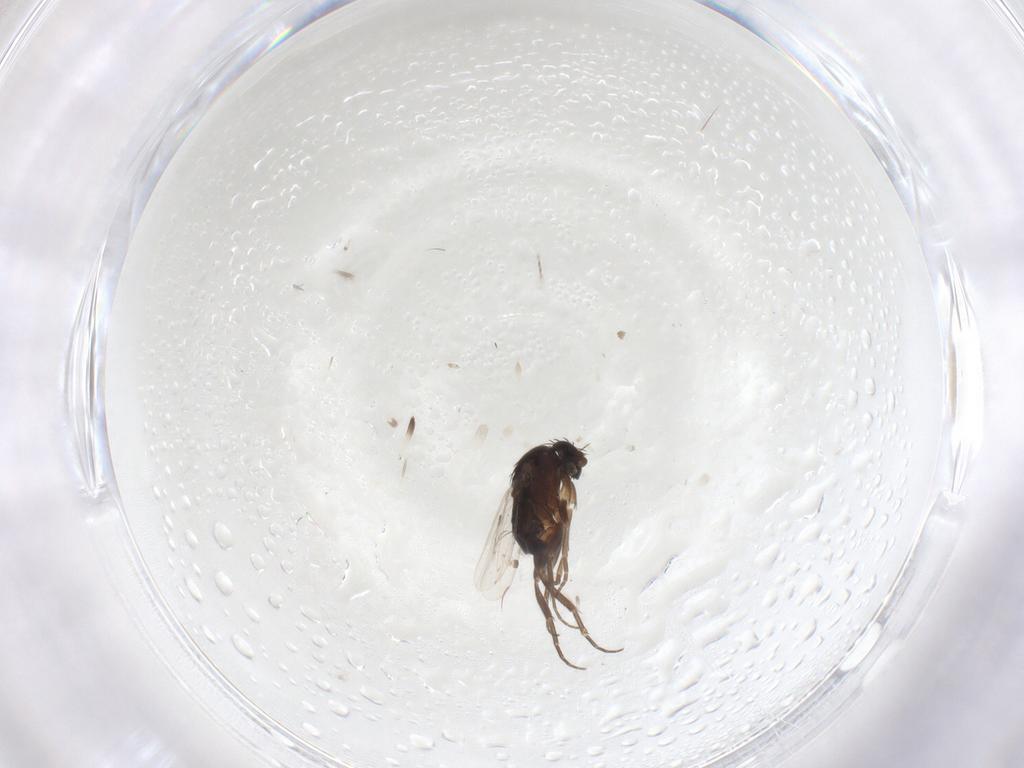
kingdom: Animalia
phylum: Arthropoda
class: Insecta
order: Diptera
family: Phoridae
